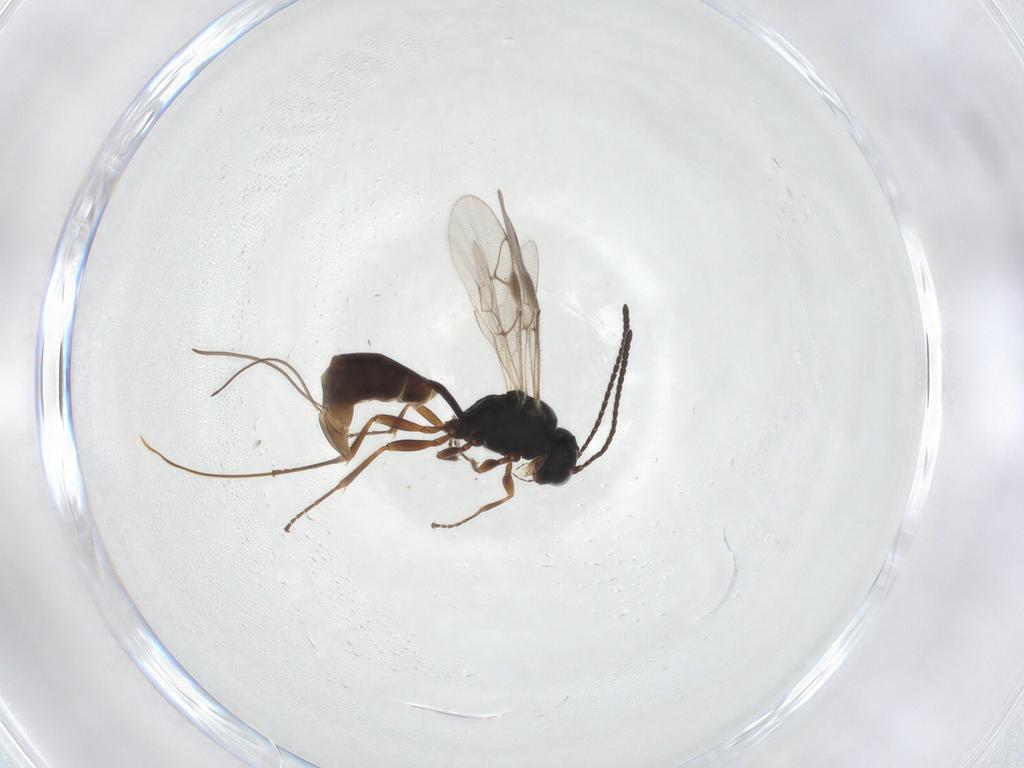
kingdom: Animalia
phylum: Arthropoda
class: Insecta
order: Hymenoptera
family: Ichneumonidae
